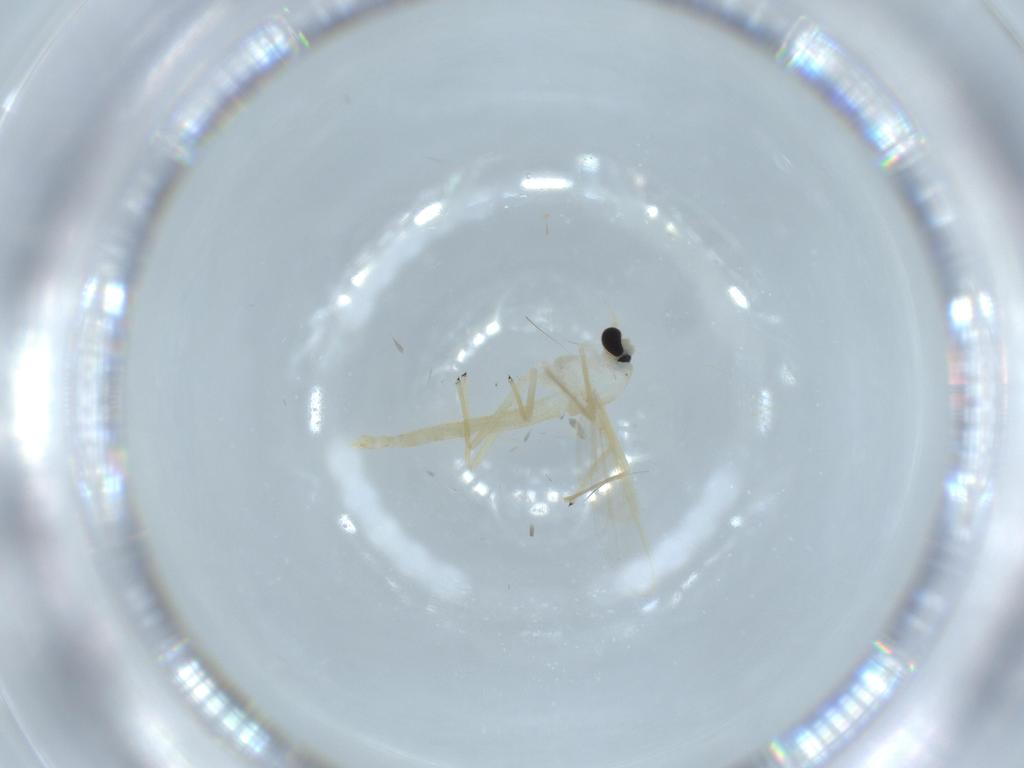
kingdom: Animalia
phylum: Arthropoda
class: Insecta
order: Diptera
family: Chironomidae
